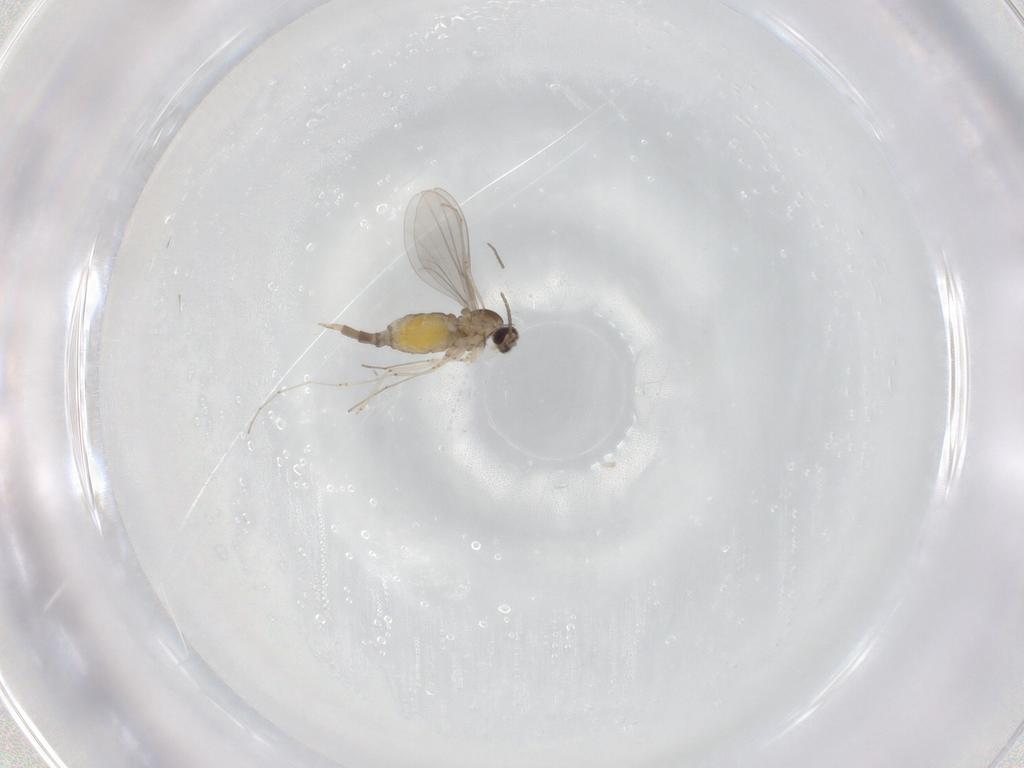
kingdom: Animalia
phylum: Arthropoda
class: Insecta
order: Diptera
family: Cecidomyiidae
